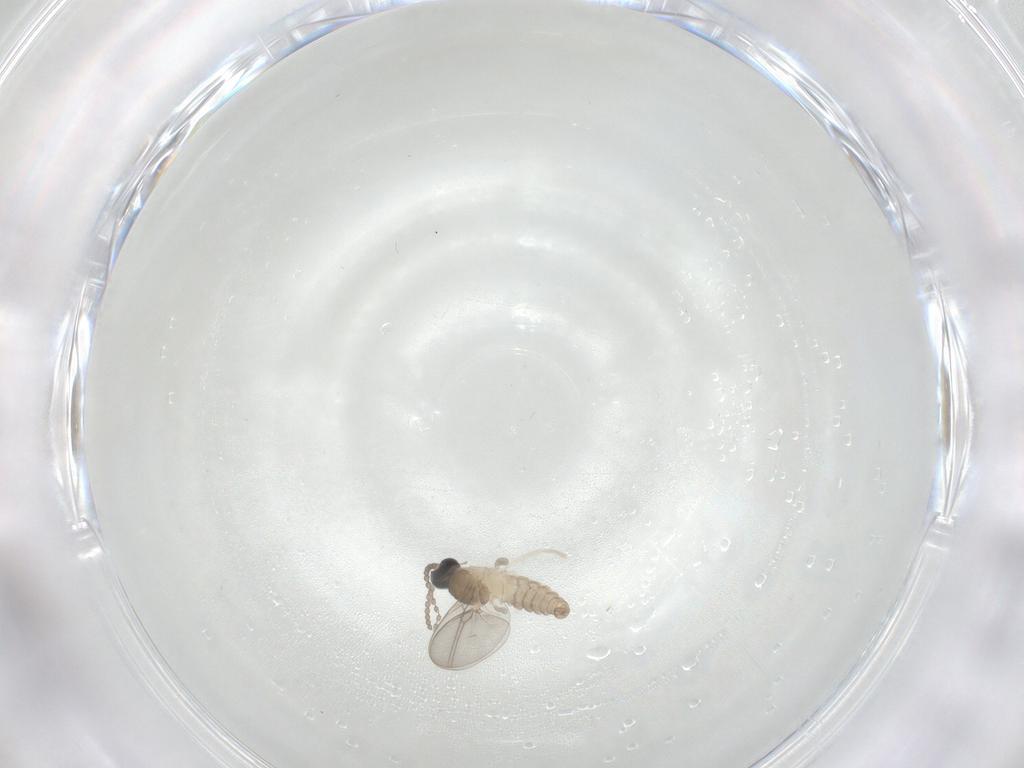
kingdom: Animalia
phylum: Arthropoda
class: Insecta
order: Diptera
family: Cecidomyiidae
